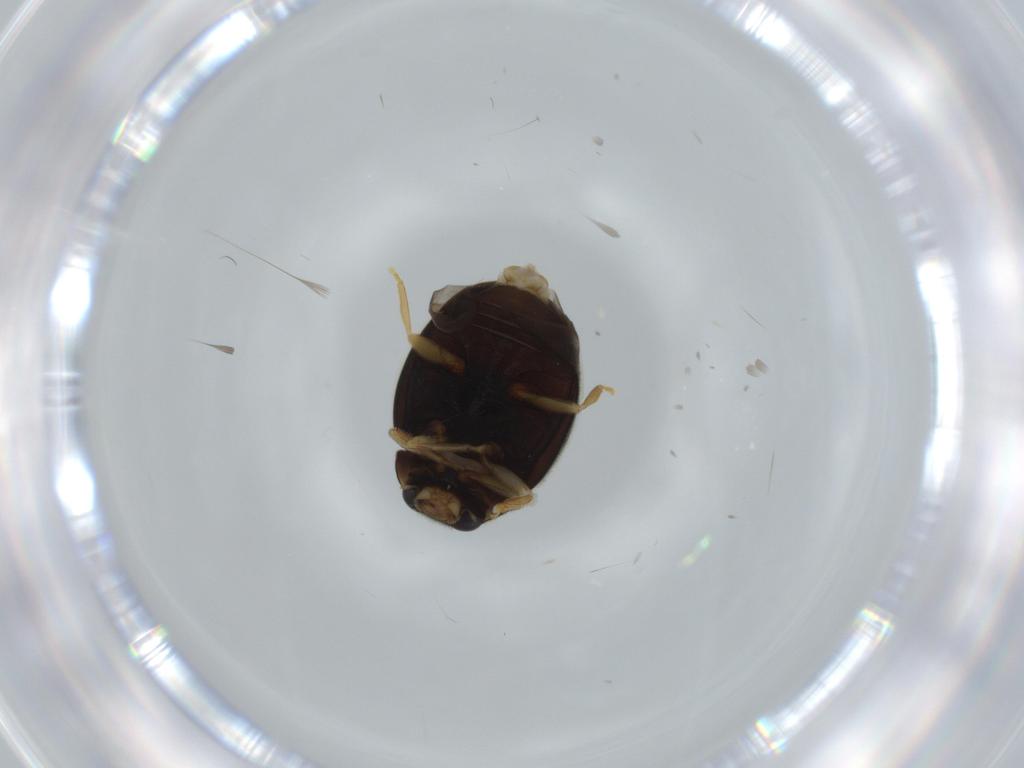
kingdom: Animalia
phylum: Arthropoda
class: Insecta
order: Coleoptera
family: Coccinellidae
